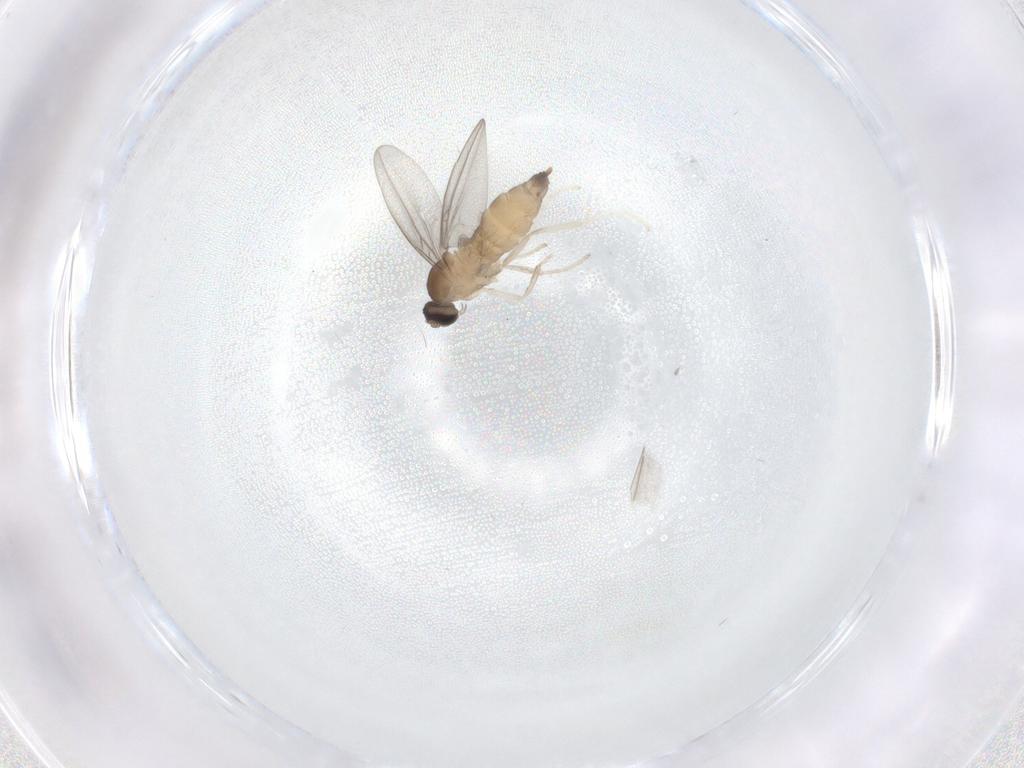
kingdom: Animalia
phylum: Arthropoda
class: Insecta
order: Diptera
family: Cecidomyiidae
